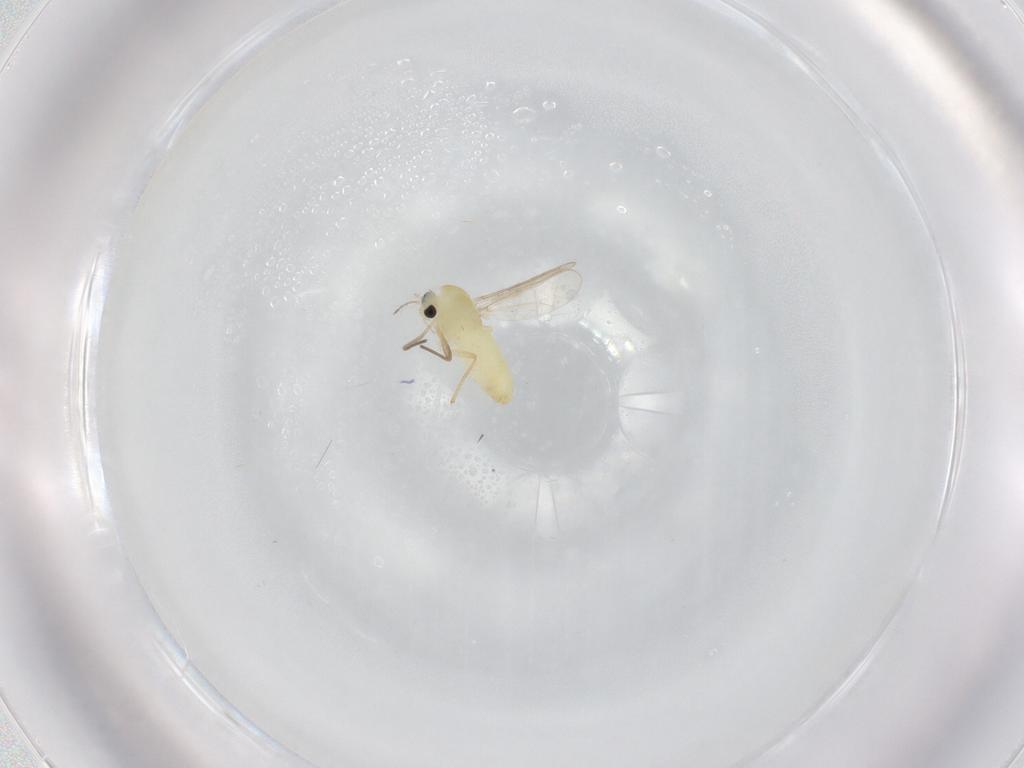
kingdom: Animalia
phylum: Arthropoda
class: Insecta
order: Diptera
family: Chironomidae
